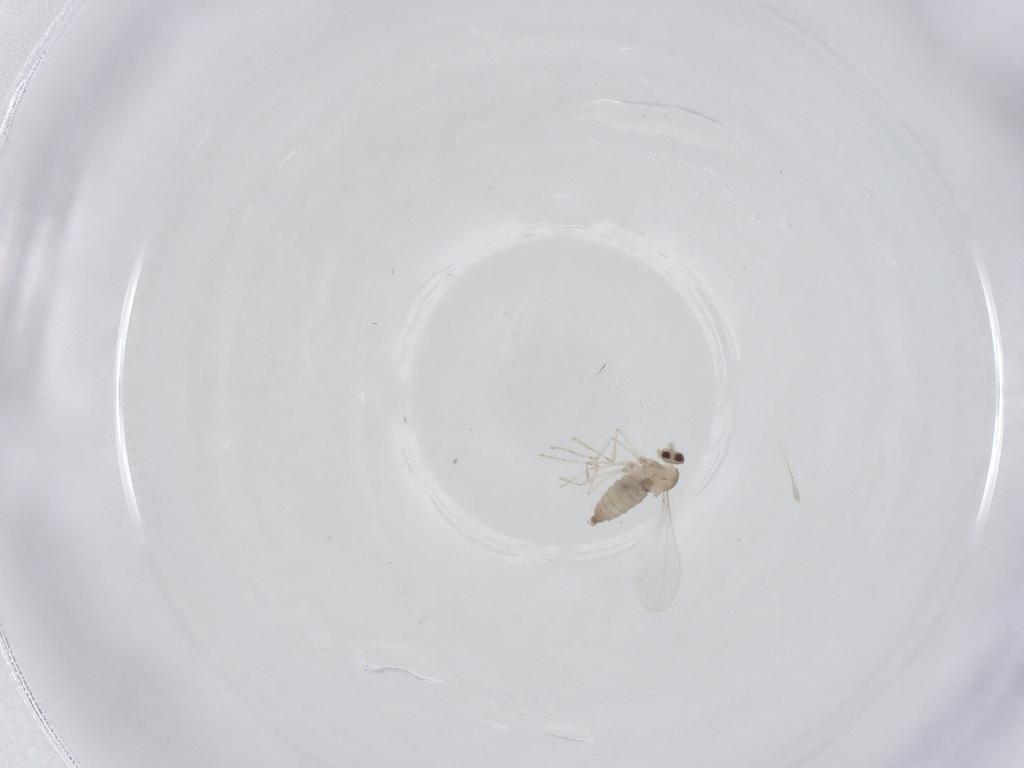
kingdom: Animalia
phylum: Arthropoda
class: Insecta
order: Diptera
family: Cecidomyiidae
